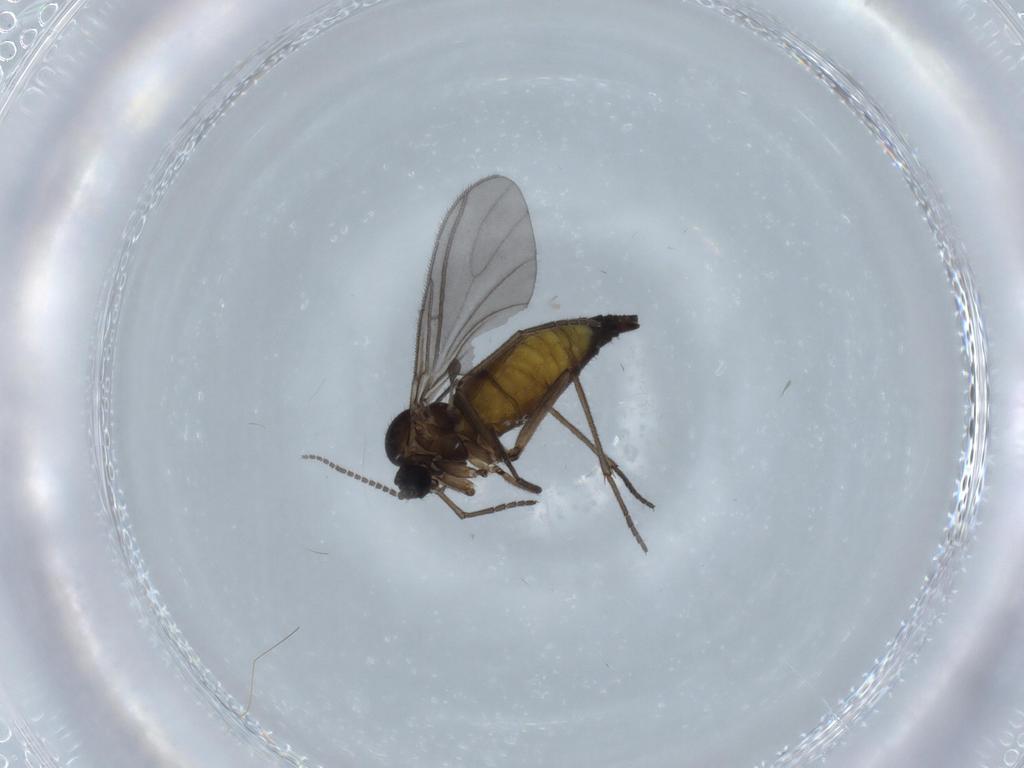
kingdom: Animalia
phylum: Arthropoda
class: Insecta
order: Diptera
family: Sciaridae
